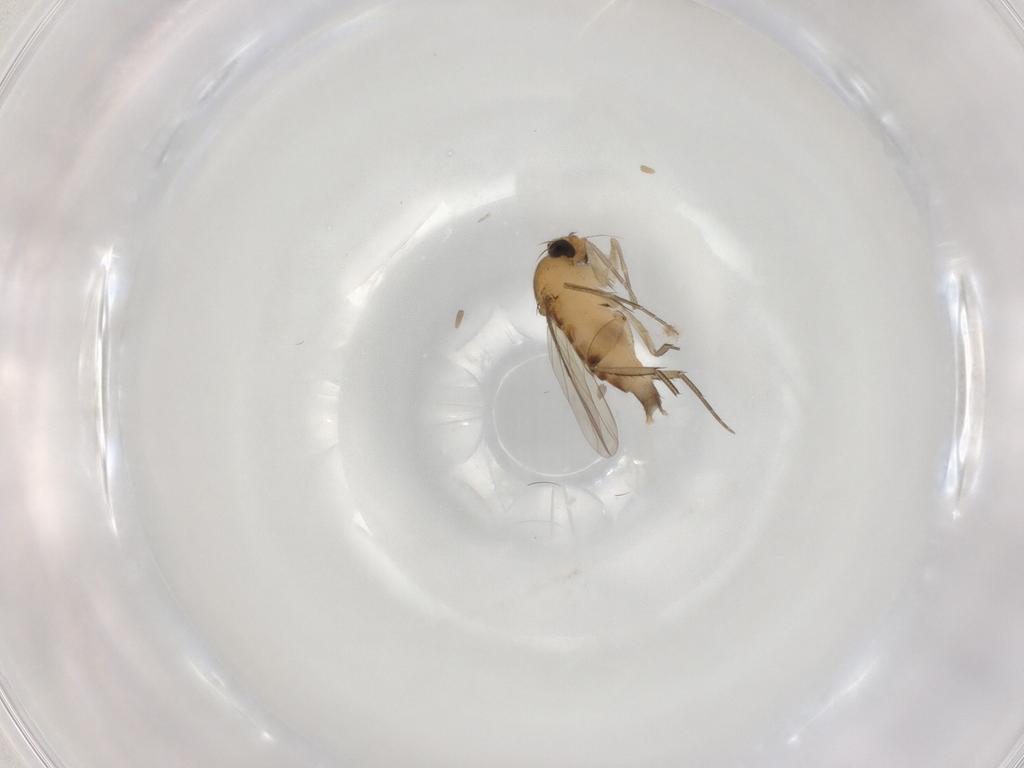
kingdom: Animalia
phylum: Arthropoda
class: Insecta
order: Diptera
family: Phoridae
